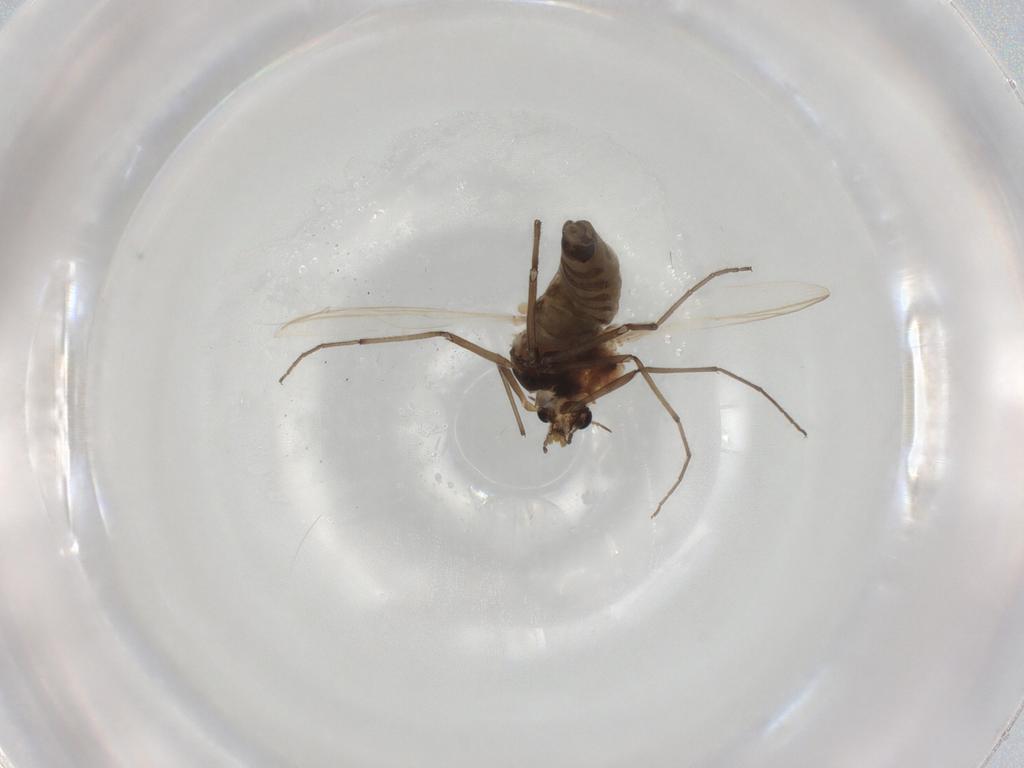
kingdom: Animalia
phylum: Arthropoda
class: Insecta
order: Diptera
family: Chironomidae
